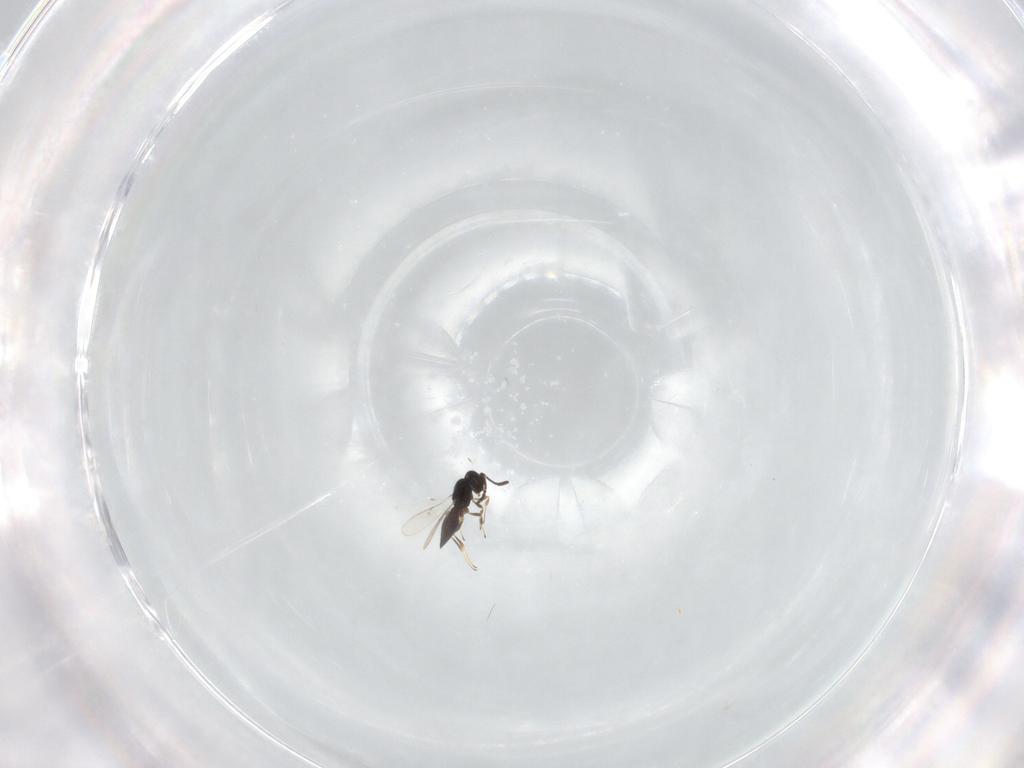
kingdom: Animalia
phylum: Arthropoda
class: Insecta
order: Hymenoptera
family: Scelionidae
